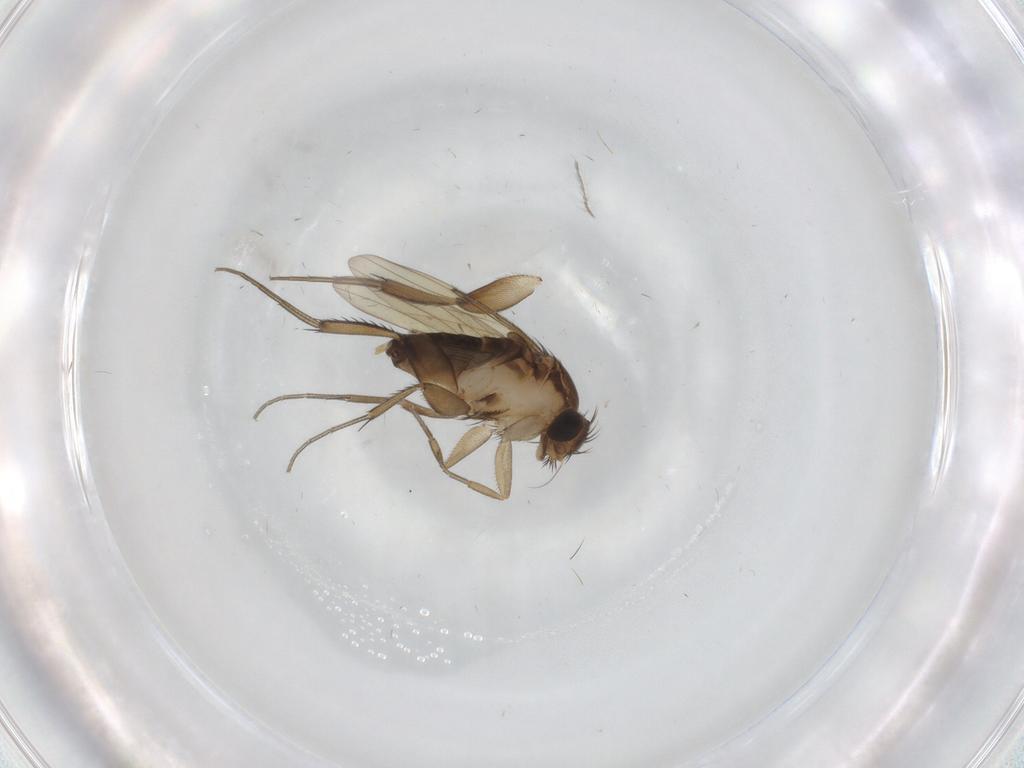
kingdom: Animalia
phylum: Arthropoda
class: Insecta
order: Diptera
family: Phoridae
